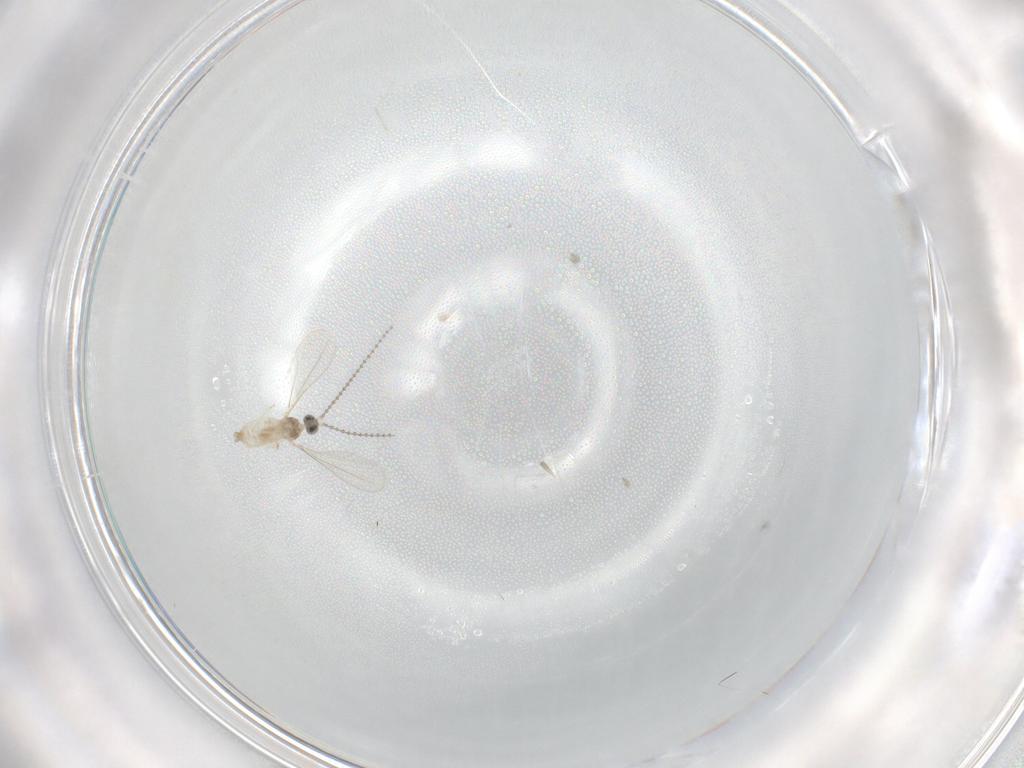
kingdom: Animalia
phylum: Arthropoda
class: Insecta
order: Diptera
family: Cecidomyiidae
